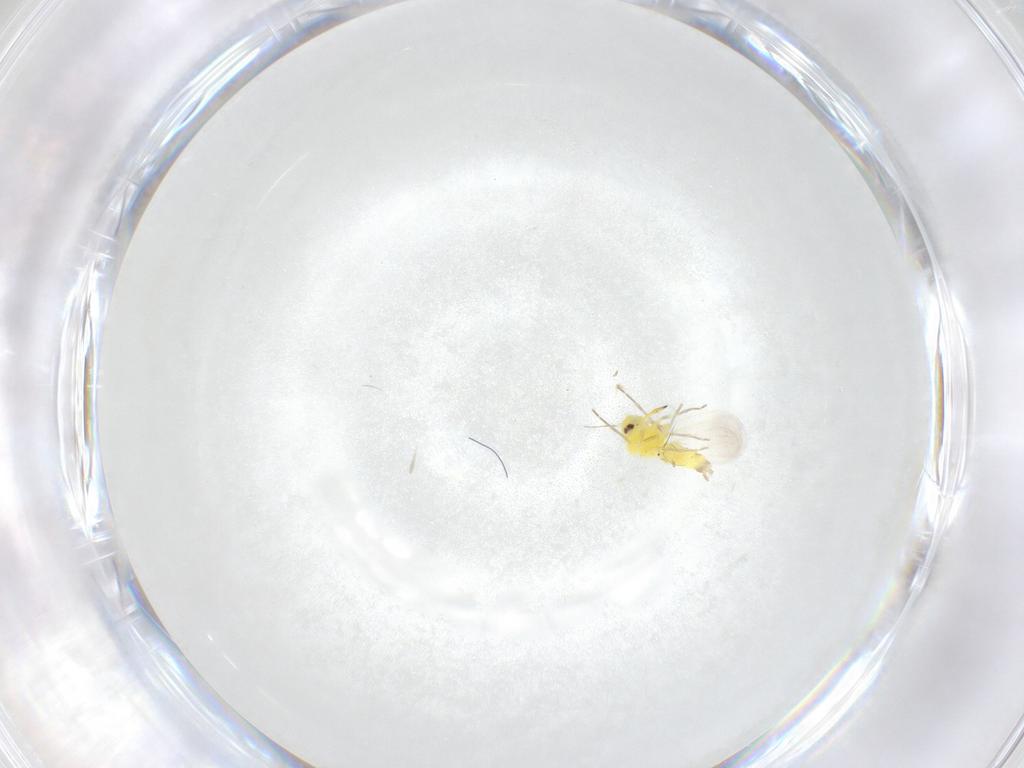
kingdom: Animalia
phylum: Arthropoda
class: Insecta
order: Hemiptera
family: Aleyrodidae
